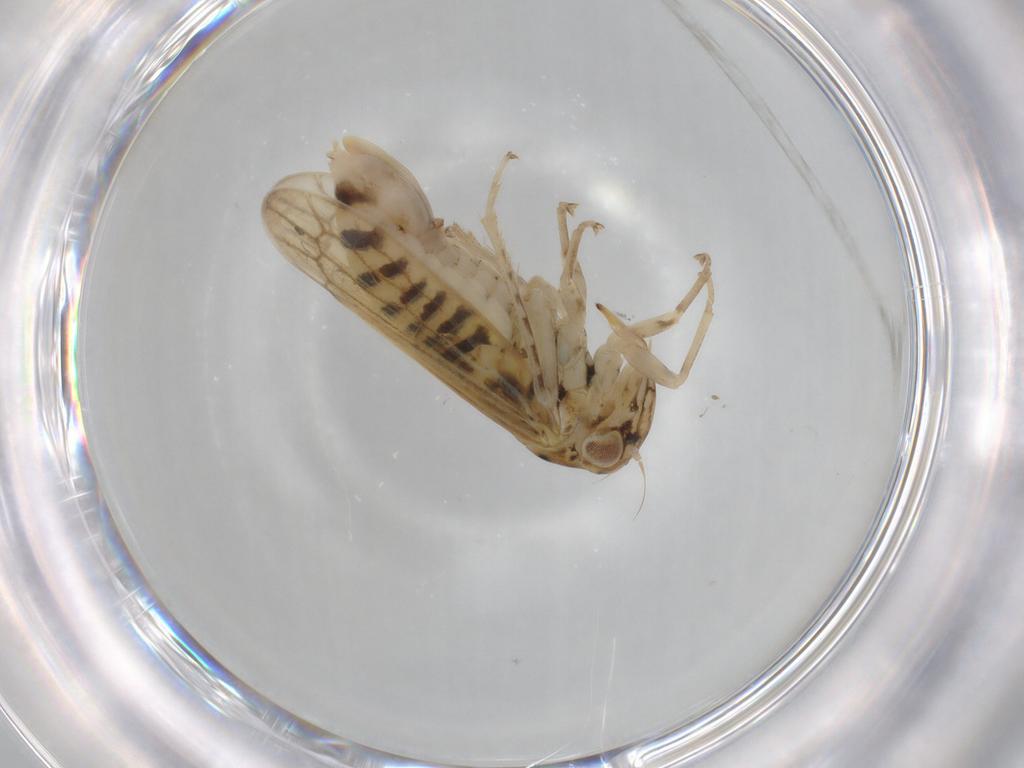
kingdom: Animalia
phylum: Arthropoda
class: Insecta
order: Hemiptera
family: Cicadellidae
